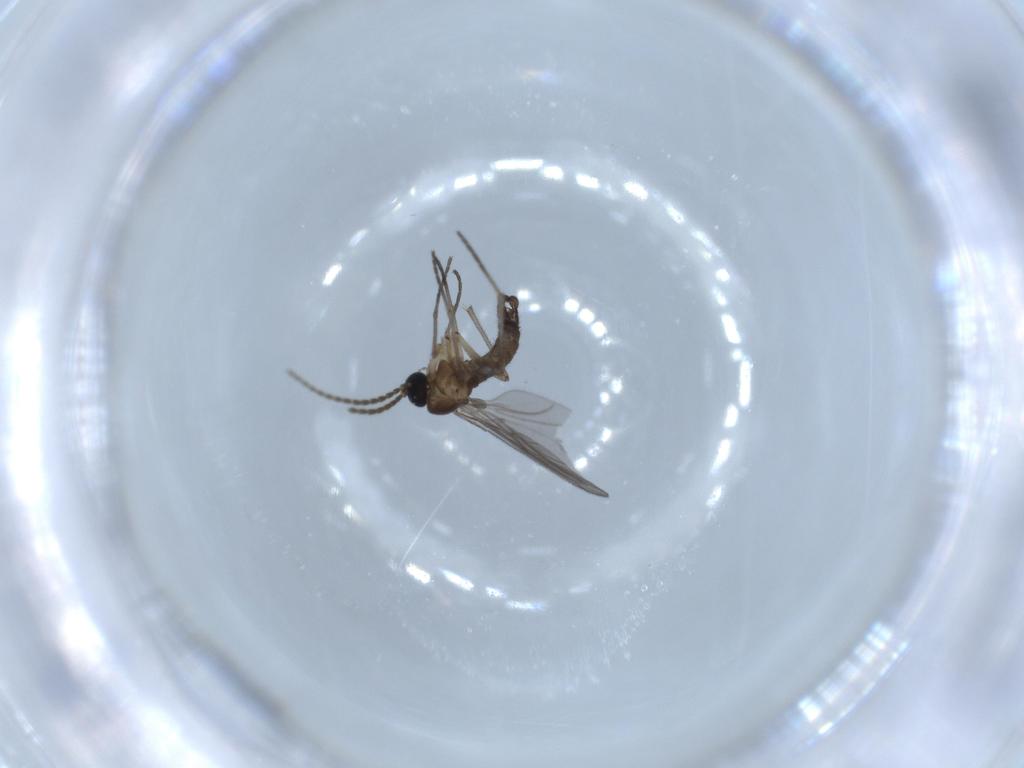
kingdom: Animalia
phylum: Arthropoda
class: Insecta
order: Diptera
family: Sciaridae
